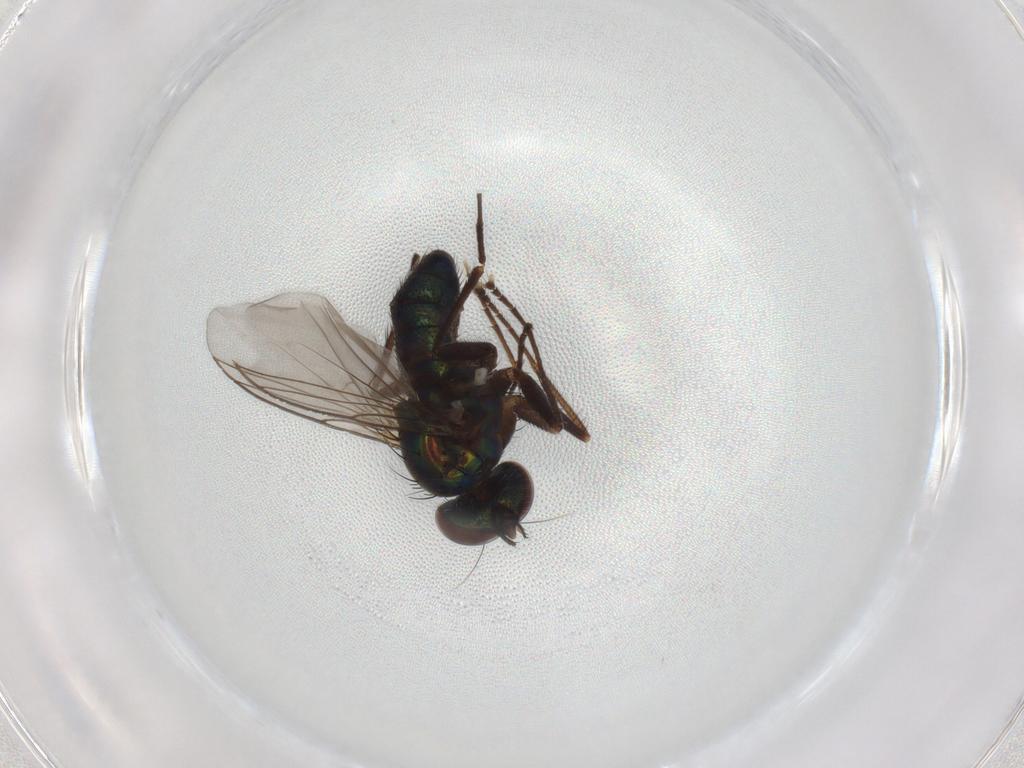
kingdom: Animalia
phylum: Arthropoda
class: Insecta
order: Diptera
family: Dolichopodidae
